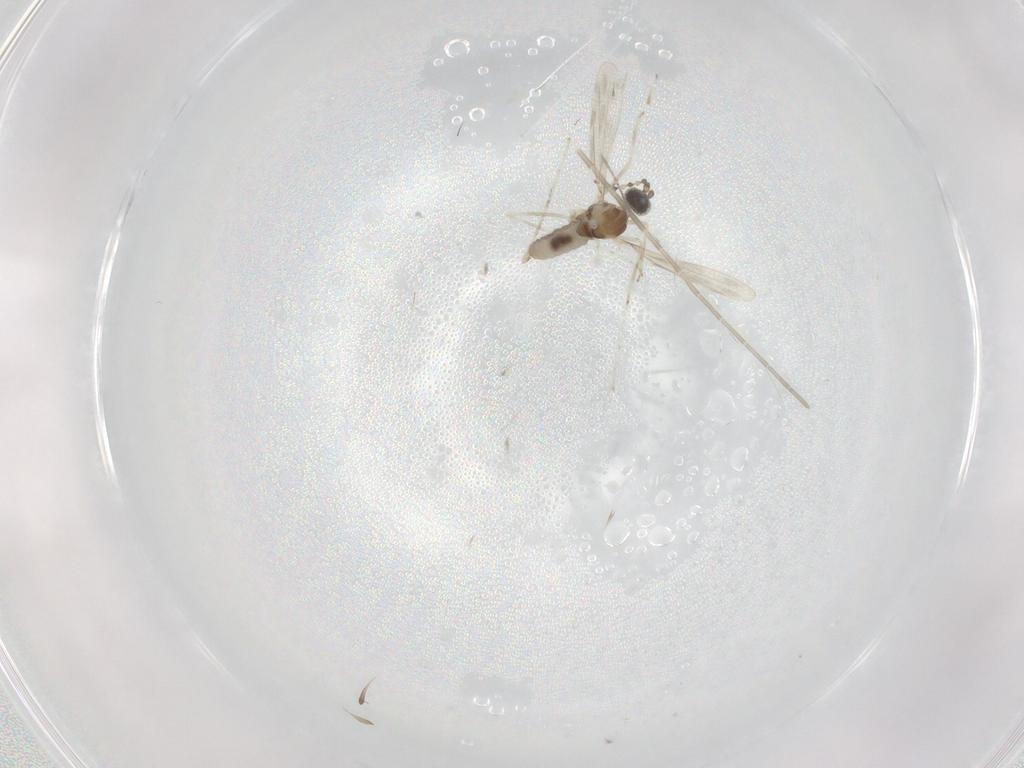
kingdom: Animalia
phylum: Arthropoda
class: Insecta
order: Diptera
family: Cecidomyiidae
